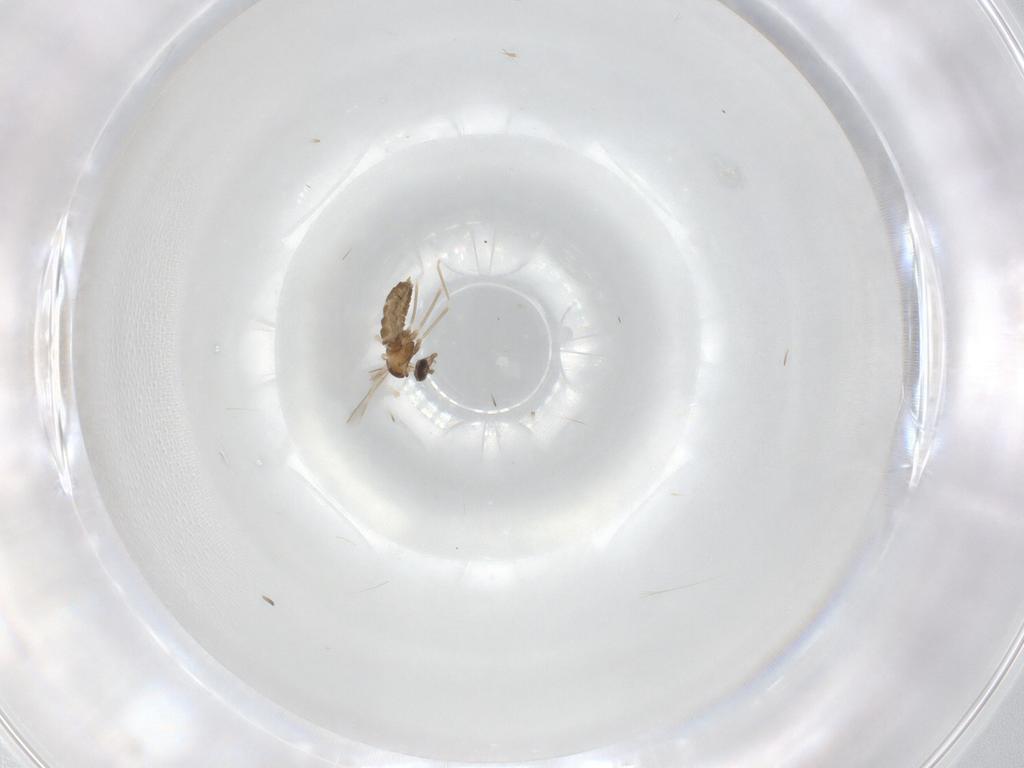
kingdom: Animalia
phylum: Arthropoda
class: Insecta
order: Diptera
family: Cecidomyiidae
